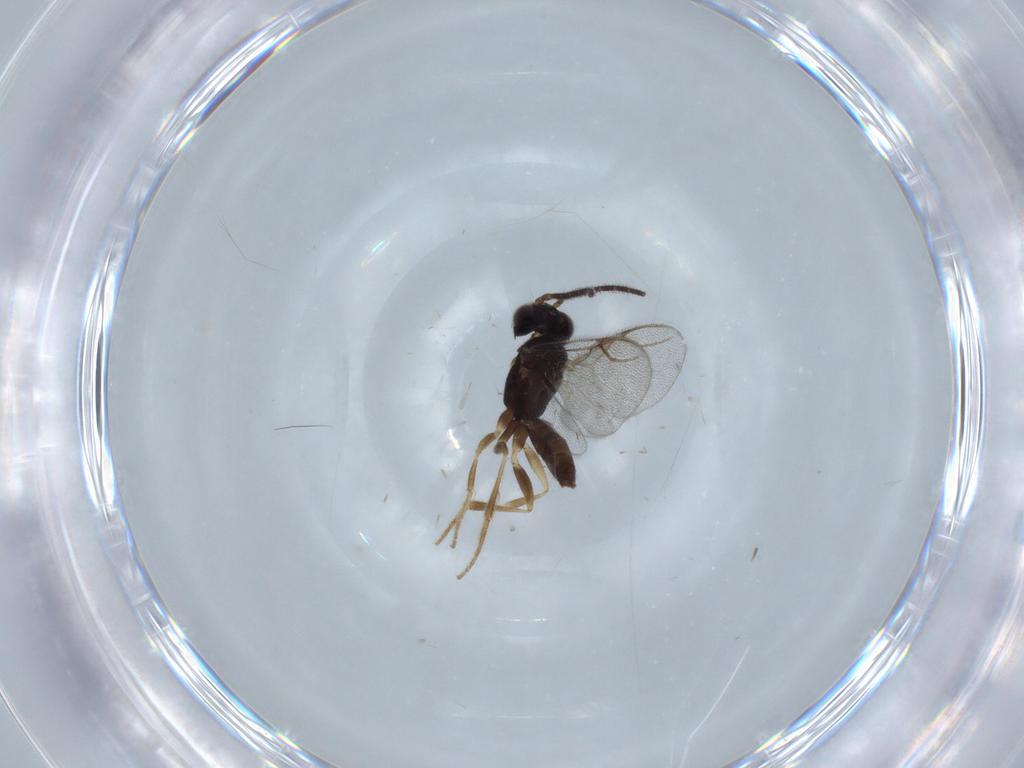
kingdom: Animalia
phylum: Arthropoda
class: Insecta
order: Hymenoptera
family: Dryinidae
